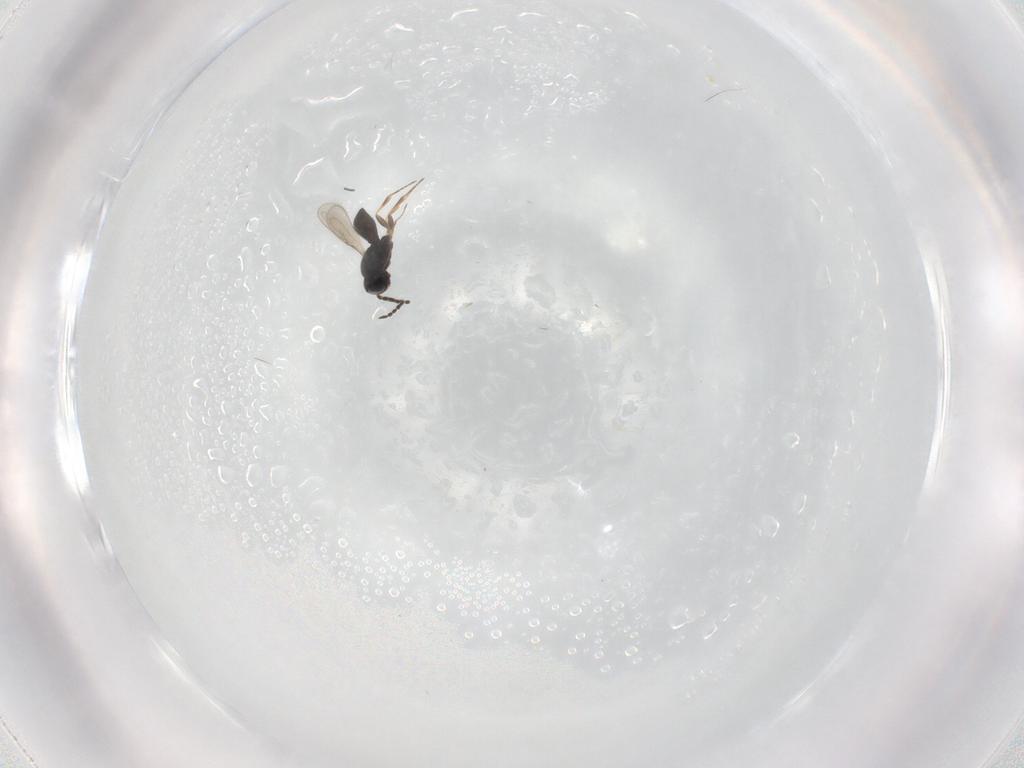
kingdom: Animalia
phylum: Arthropoda
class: Insecta
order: Hymenoptera
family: Scelionidae
